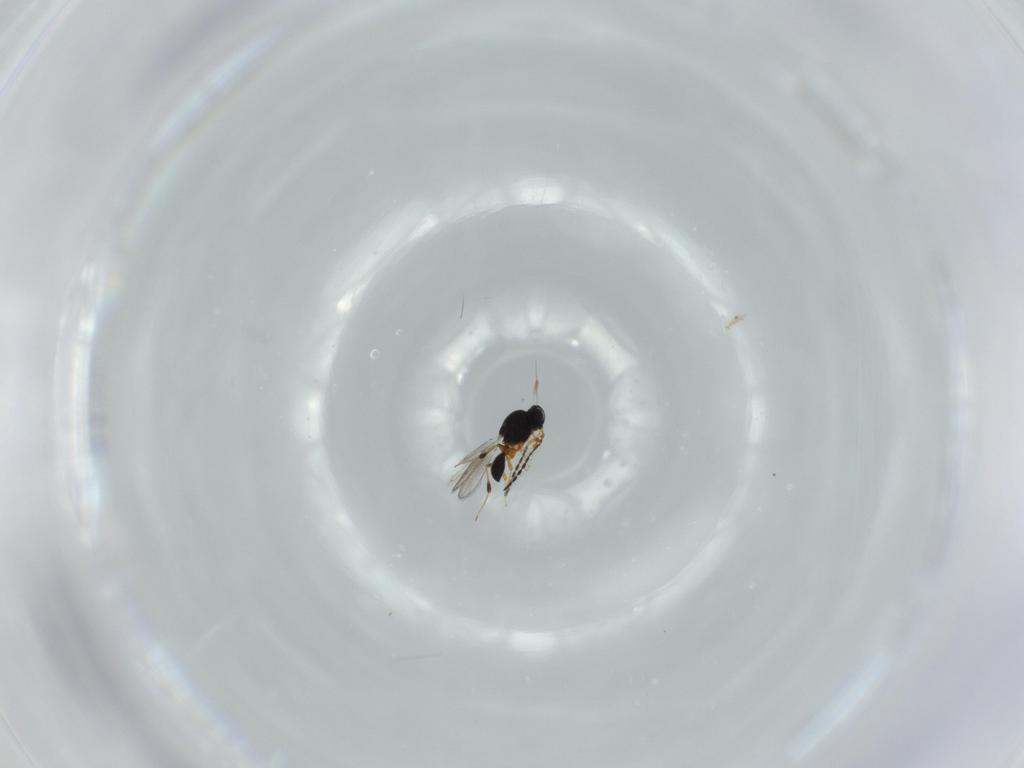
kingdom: Animalia
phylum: Arthropoda
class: Insecta
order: Hymenoptera
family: Platygastridae
